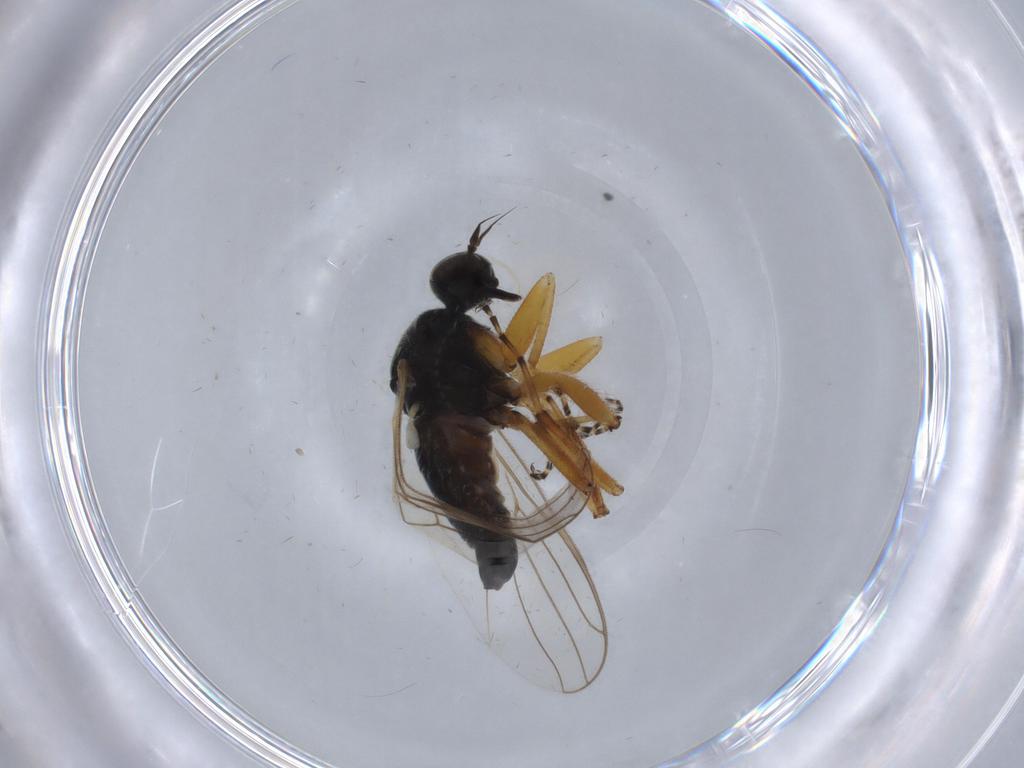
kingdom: Animalia
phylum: Arthropoda
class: Insecta
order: Diptera
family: Hybotidae
